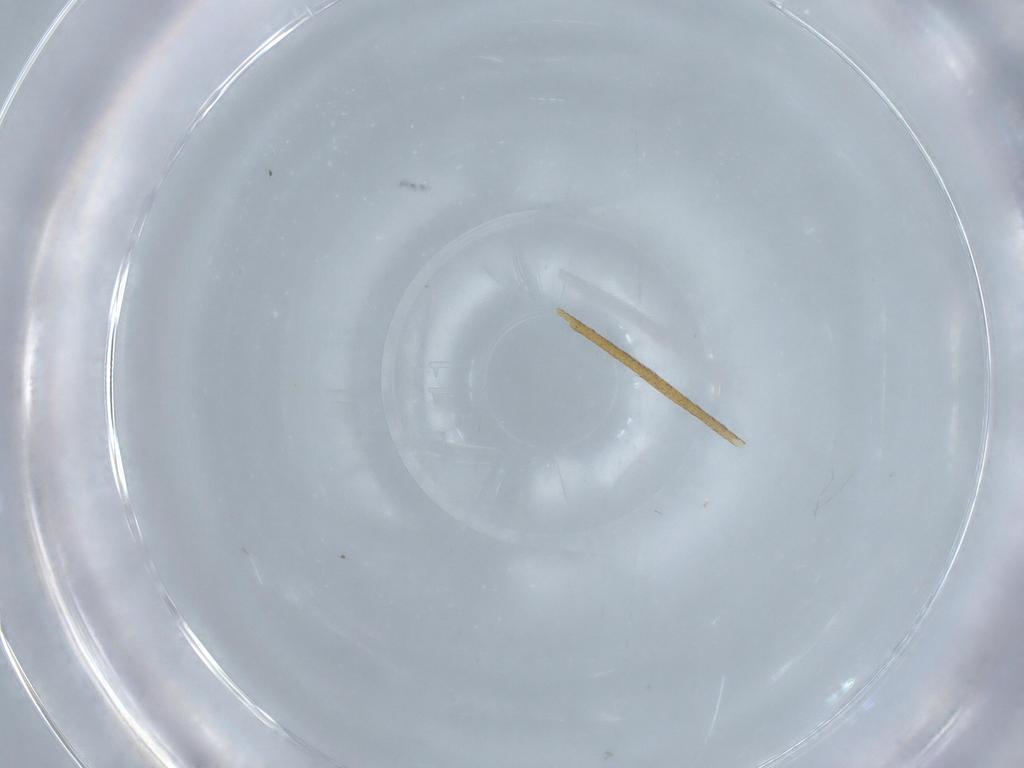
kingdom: Animalia
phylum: Arthropoda
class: Insecta
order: Diptera
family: Limoniidae
